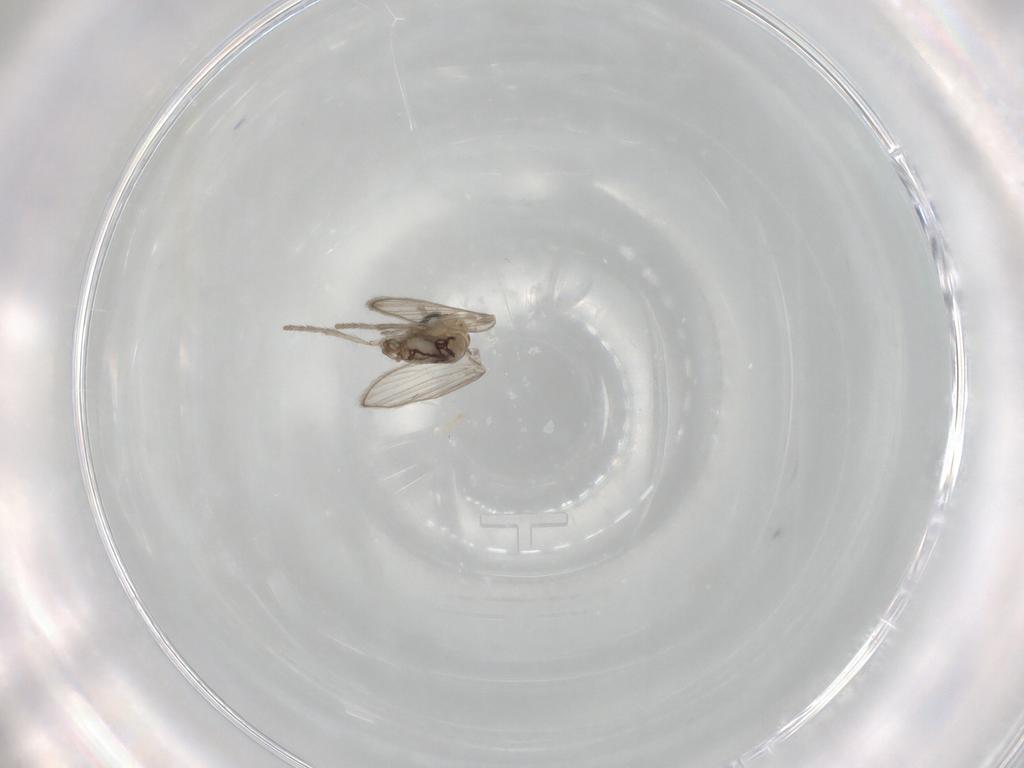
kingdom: Animalia
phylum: Arthropoda
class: Insecta
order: Diptera
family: Psychodidae
